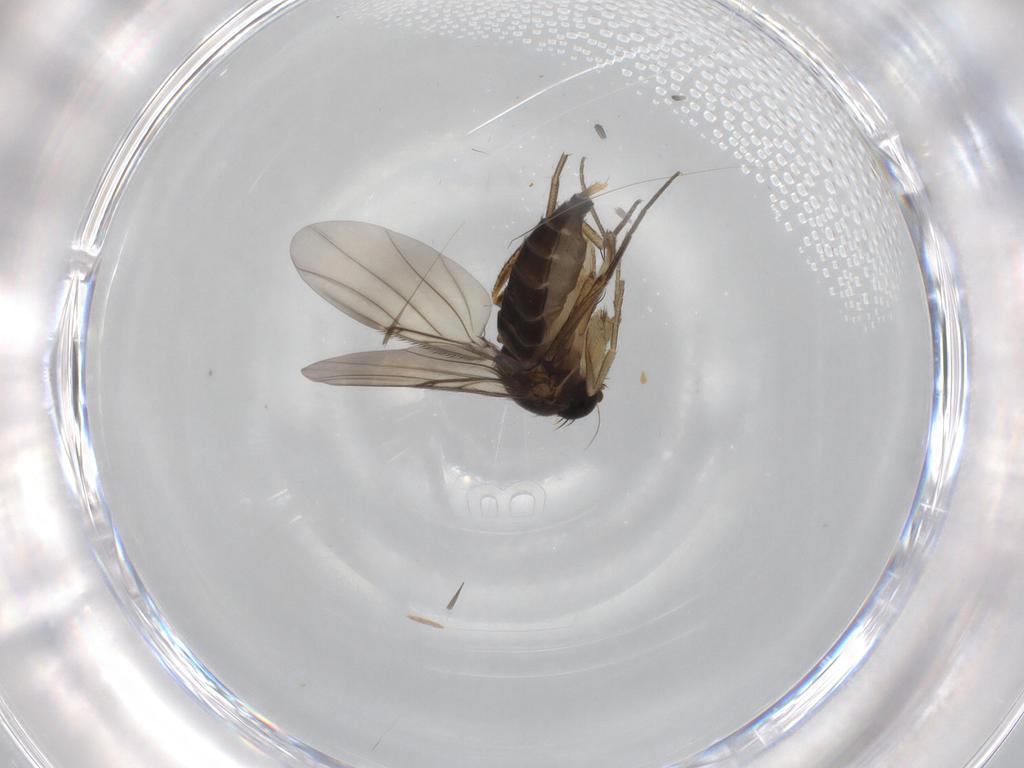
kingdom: Animalia
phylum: Arthropoda
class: Insecta
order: Diptera
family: Phoridae
